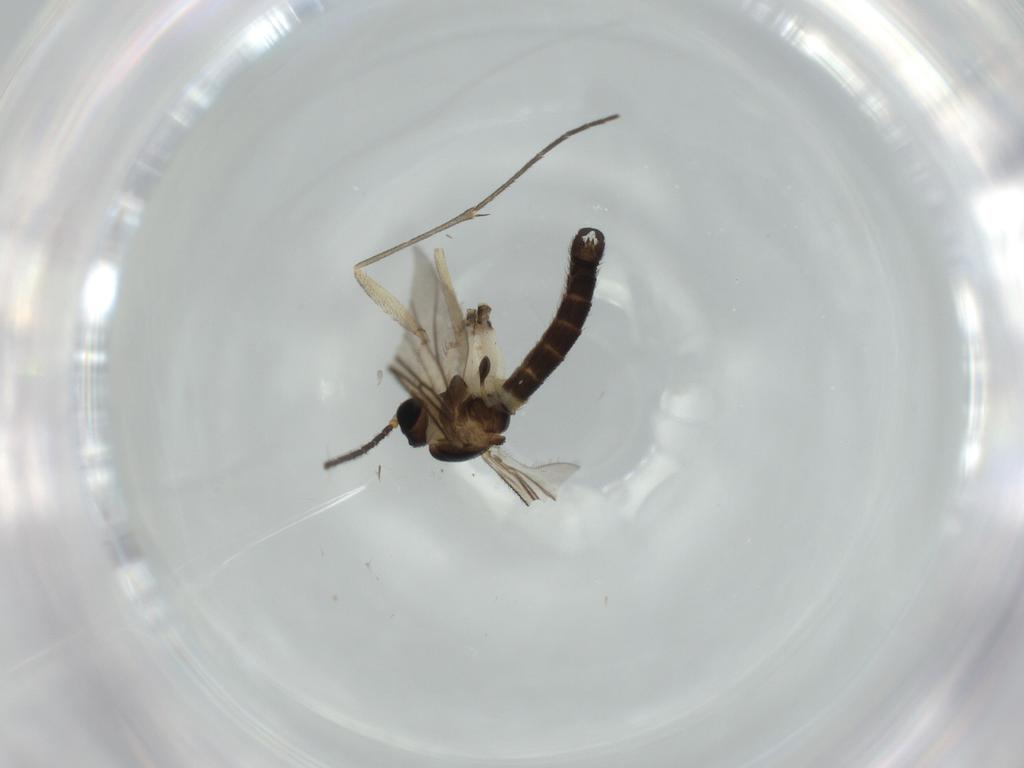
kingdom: Animalia
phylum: Arthropoda
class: Insecta
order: Diptera
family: Sciaridae
